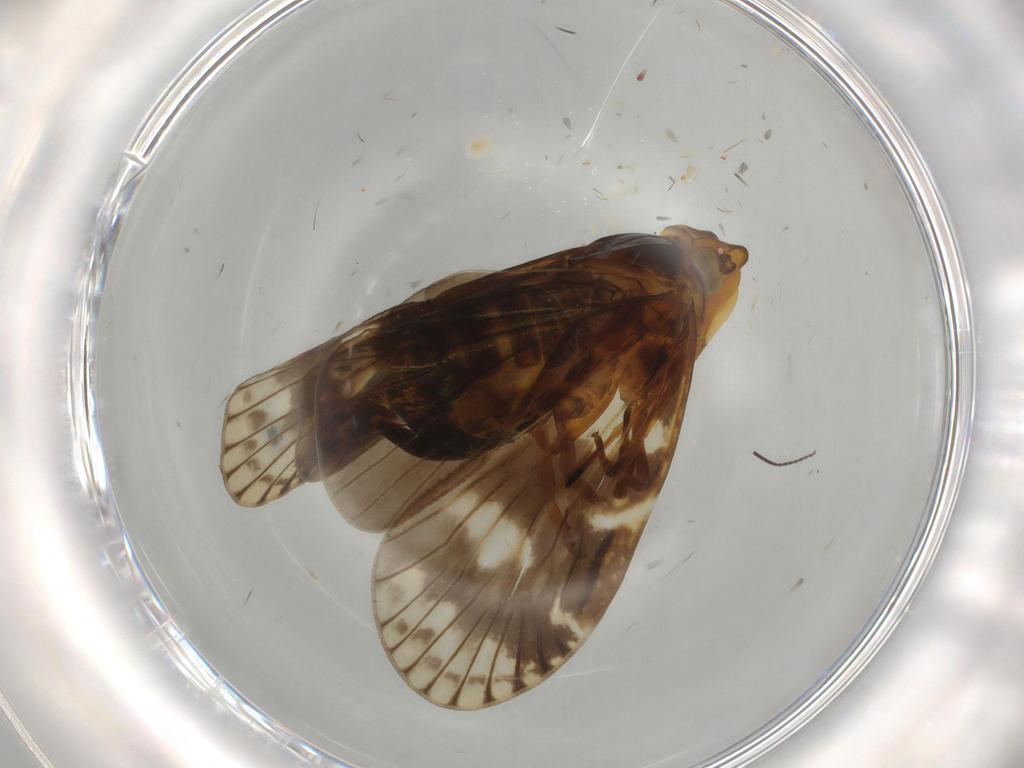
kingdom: Animalia
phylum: Arthropoda
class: Insecta
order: Hemiptera
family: Cixiidae
